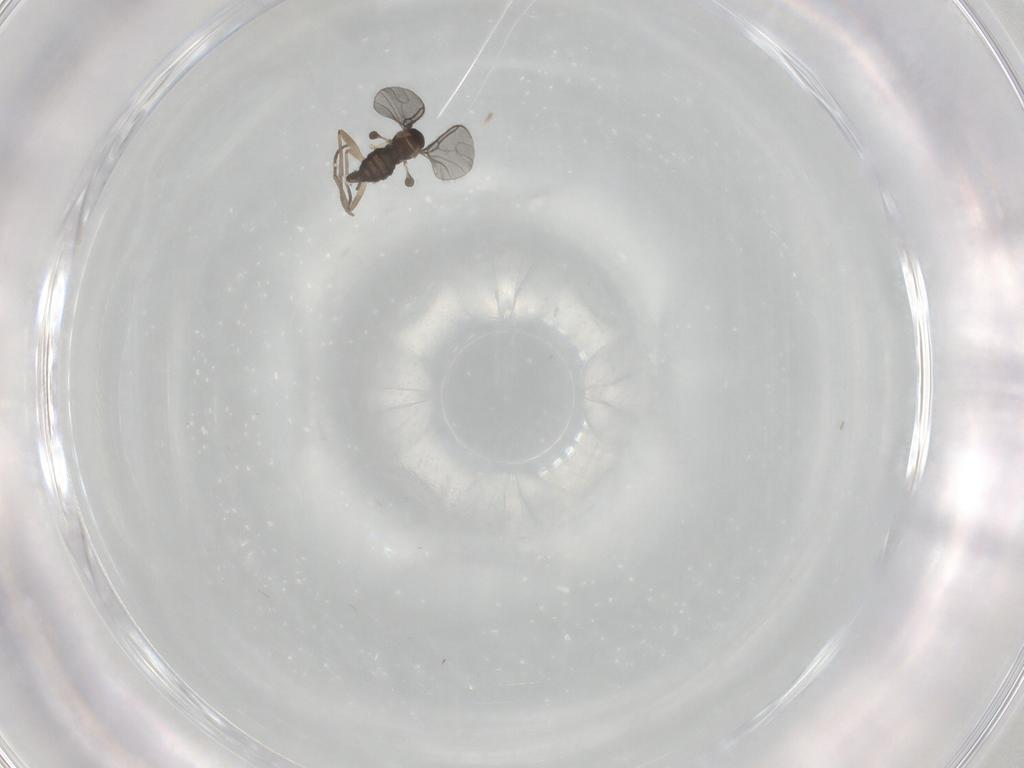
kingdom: Animalia
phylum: Arthropoda
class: Insecta
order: Diptera
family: Sciaridae
